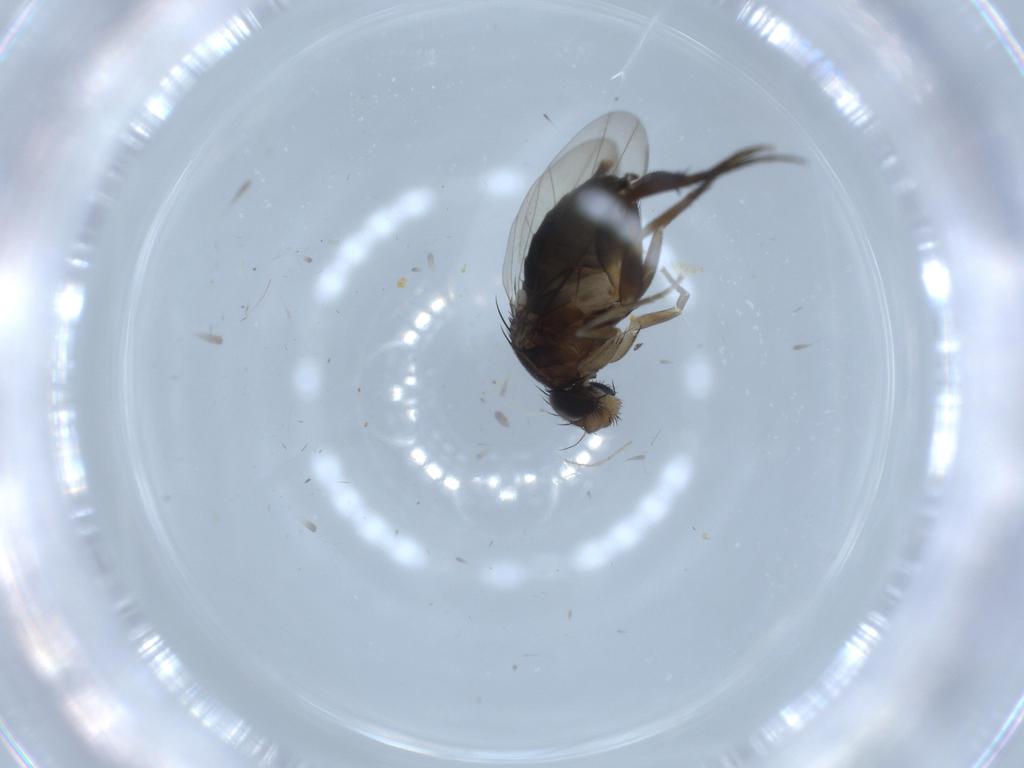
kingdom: Animalia
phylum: Arthropoda
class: Insecta
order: Diptera
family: Phoridae
